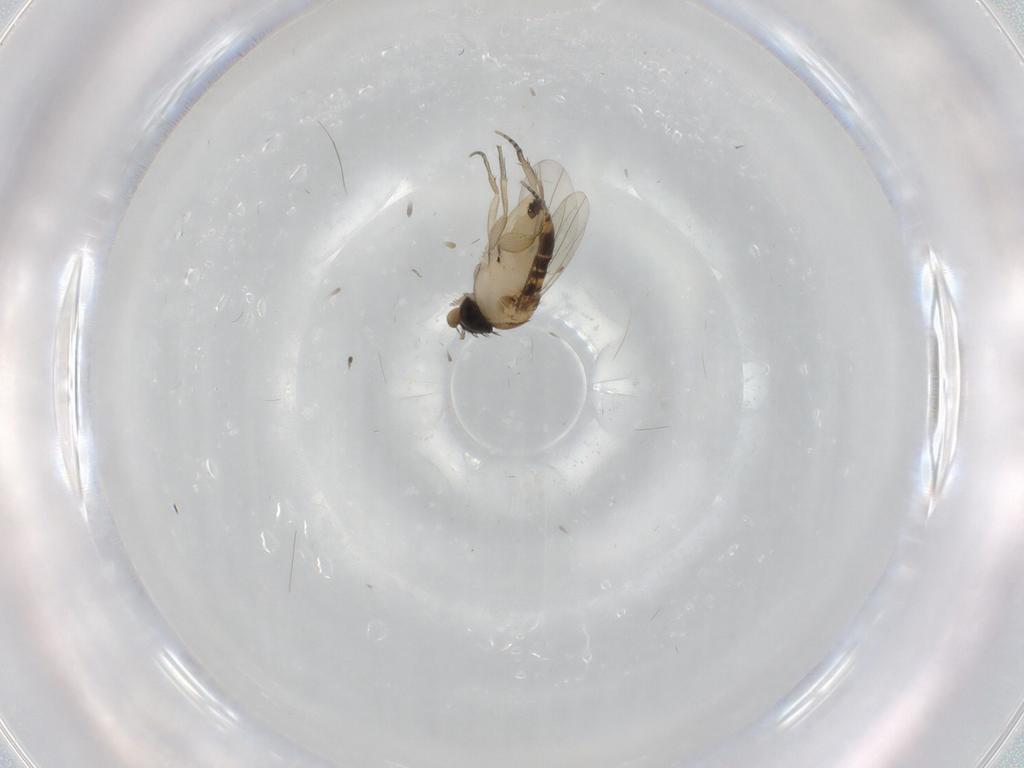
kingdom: Animalia
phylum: Arthropoda
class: Insecta
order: Diptera
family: Phoridae
